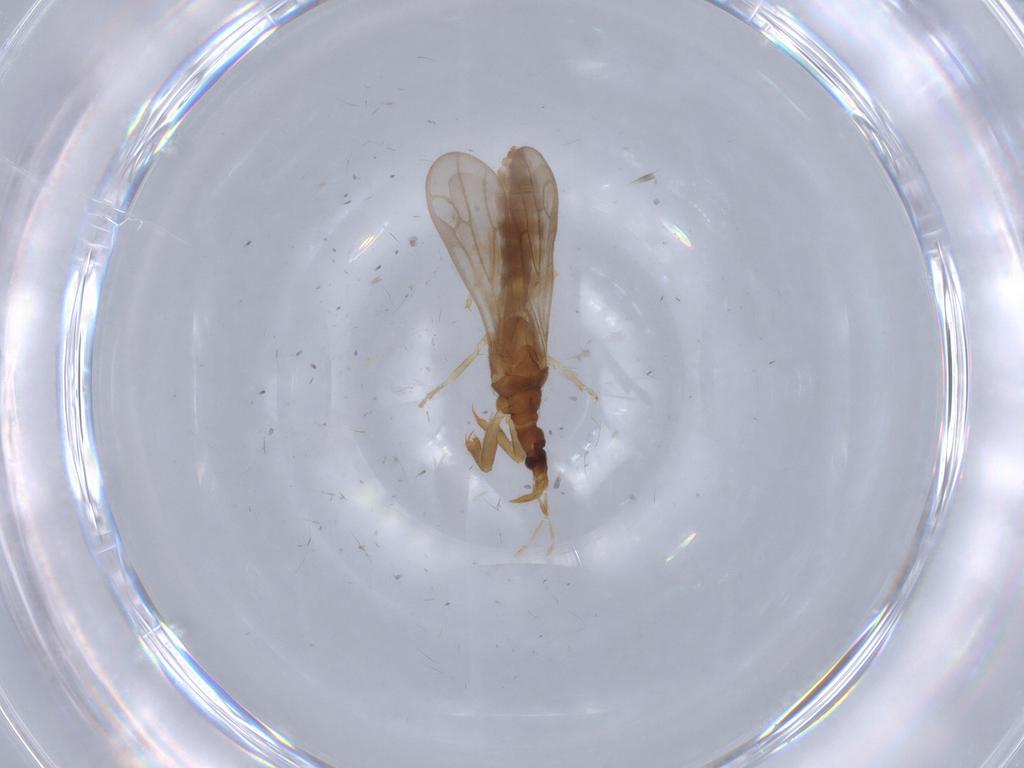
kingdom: Animalia
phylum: Arthropoda
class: Insecta
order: Hemiptera
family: Enicocephalidae
